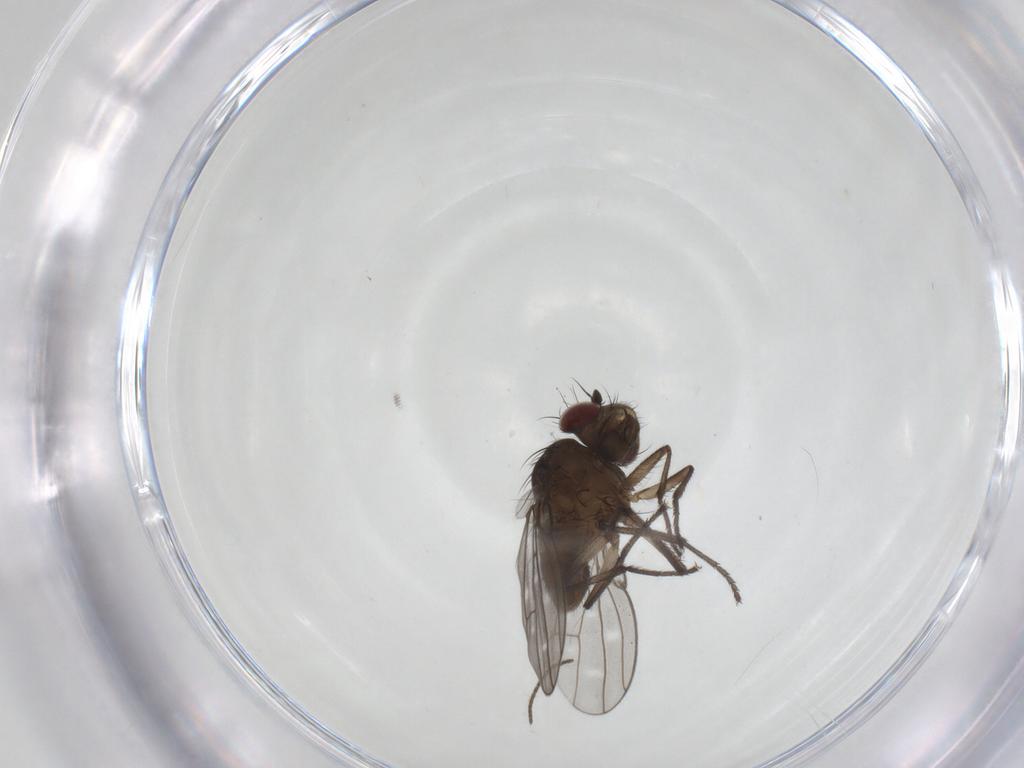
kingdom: Animalia
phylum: Arthropoda
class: Insecta
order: Diptera
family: Ephydridae
